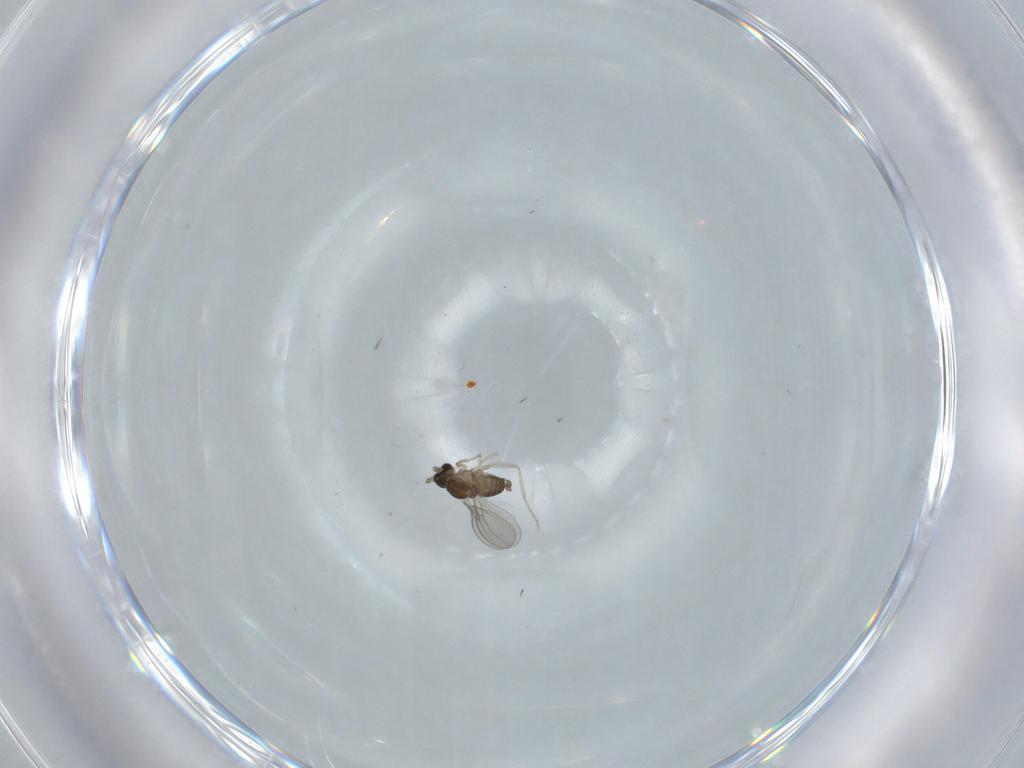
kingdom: Animalia
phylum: Arthropoda
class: Insecta
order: Diptera
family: Cecidomyiidae
